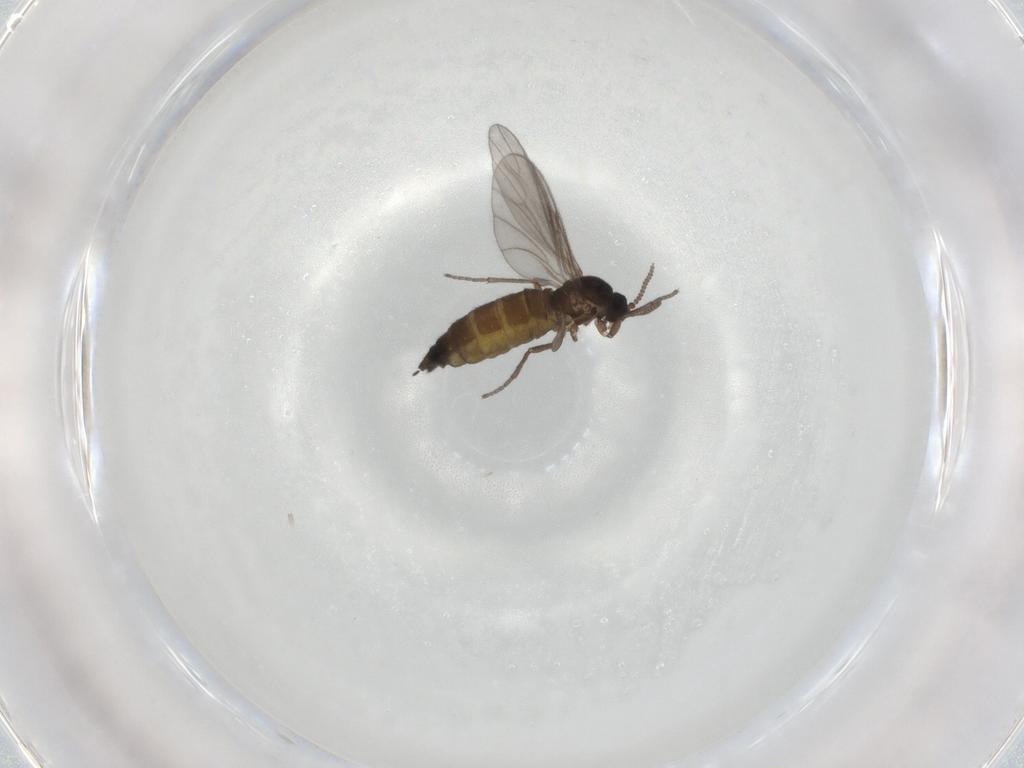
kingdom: Animalia
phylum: Arthropoda
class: Insecta
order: Diptera
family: Sciaridae
